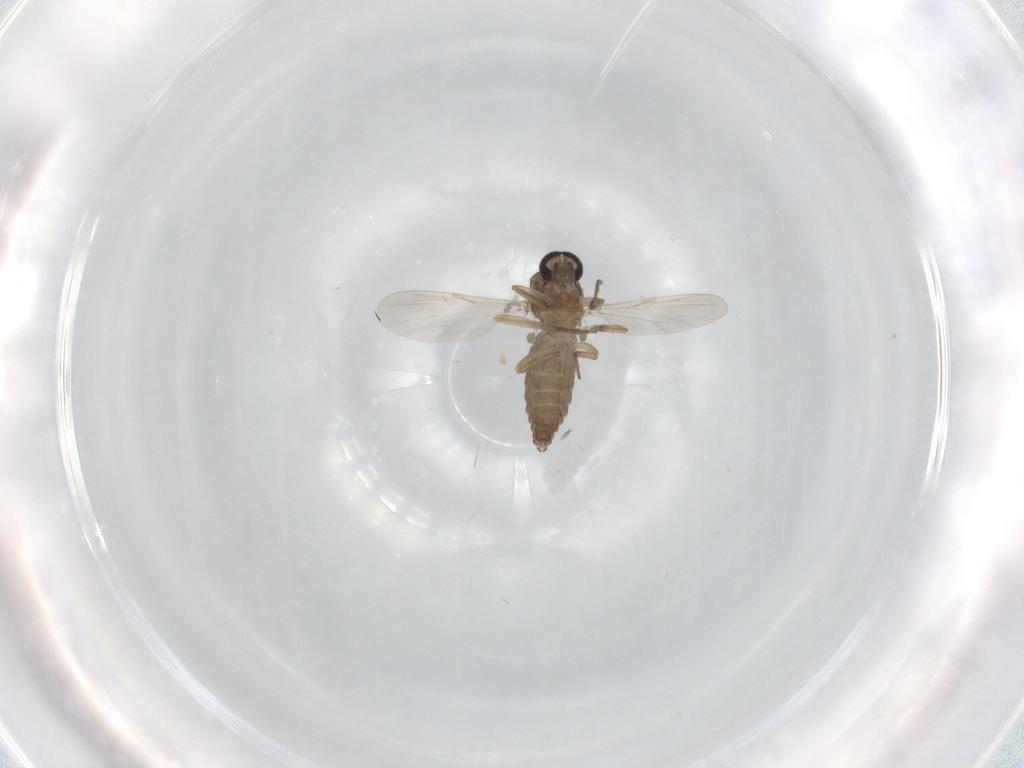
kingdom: Animalia
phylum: Arthropoda
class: Insecta
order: Diptera
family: Ceratopogonidae
